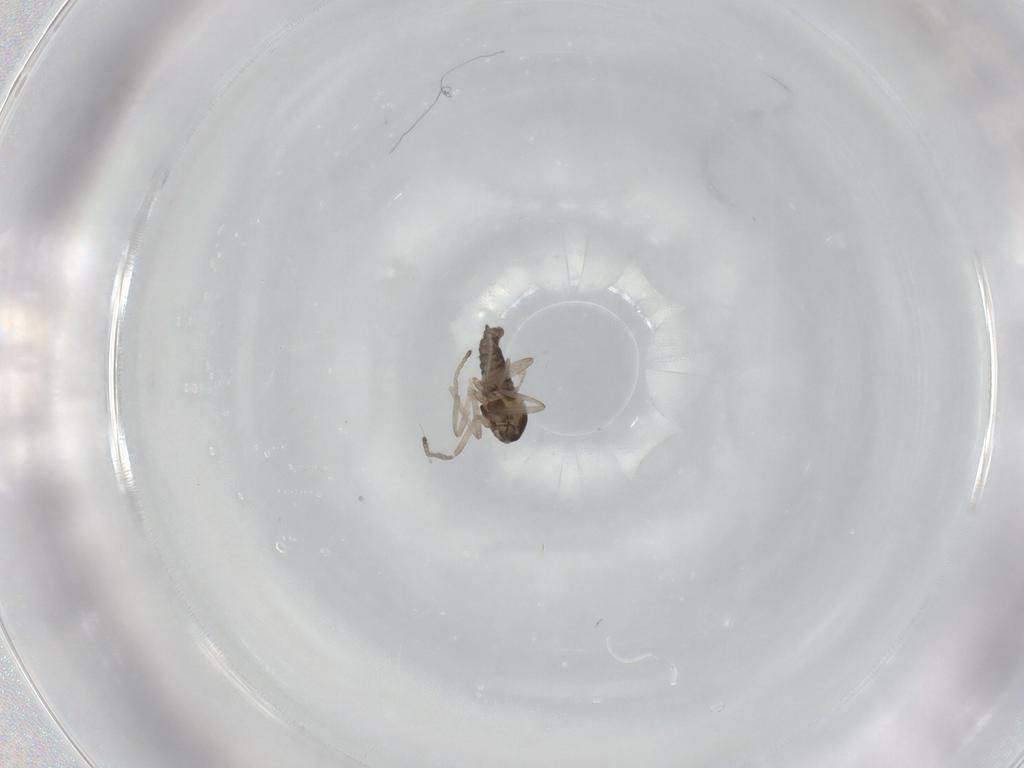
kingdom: Animalia
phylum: Arthropoda
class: Insecta
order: Diptera
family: Cecidomyiidae
